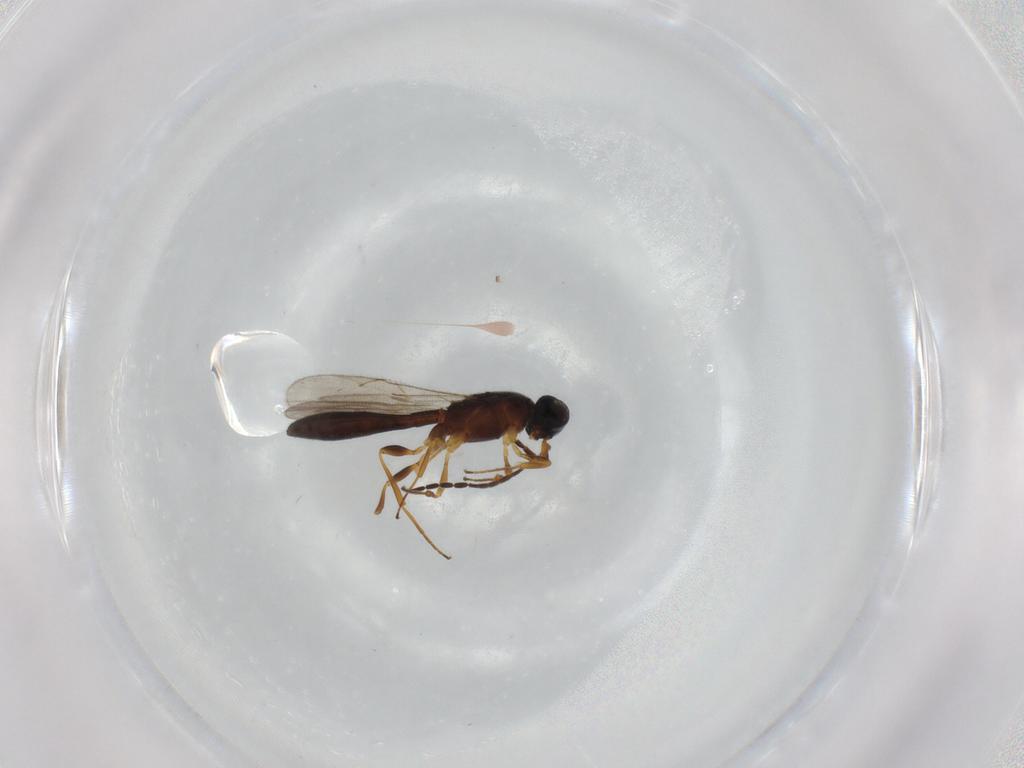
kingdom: Animalia
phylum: Arthropoda
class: Insecta
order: Hymenoptera
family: Scelionidae
